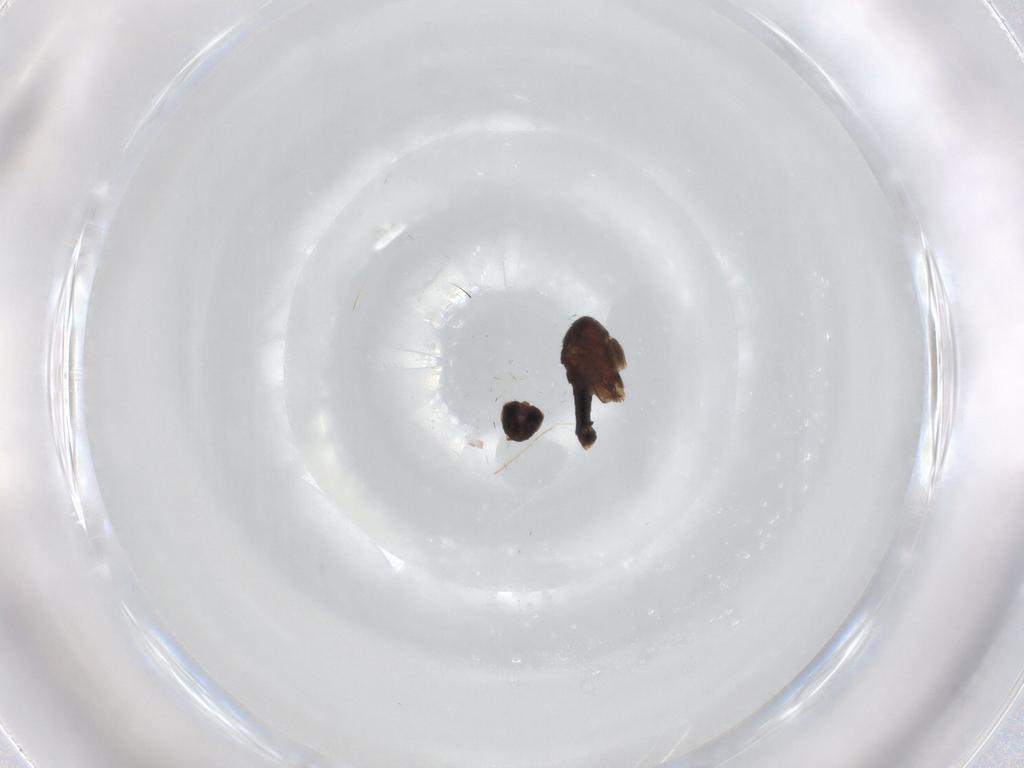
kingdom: Animalia
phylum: Arthropoda
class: Insecta
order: Diptera
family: Phoridae
